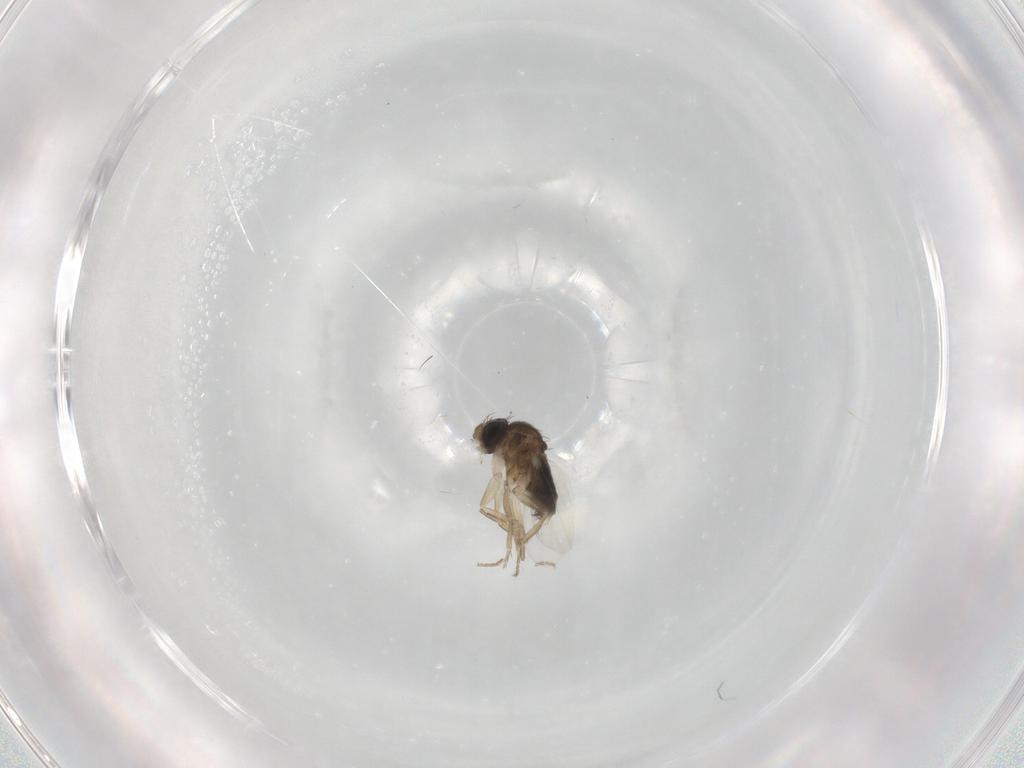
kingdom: Animalia
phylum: Arthropoda
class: Insecta
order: Diptera
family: Phoridae
